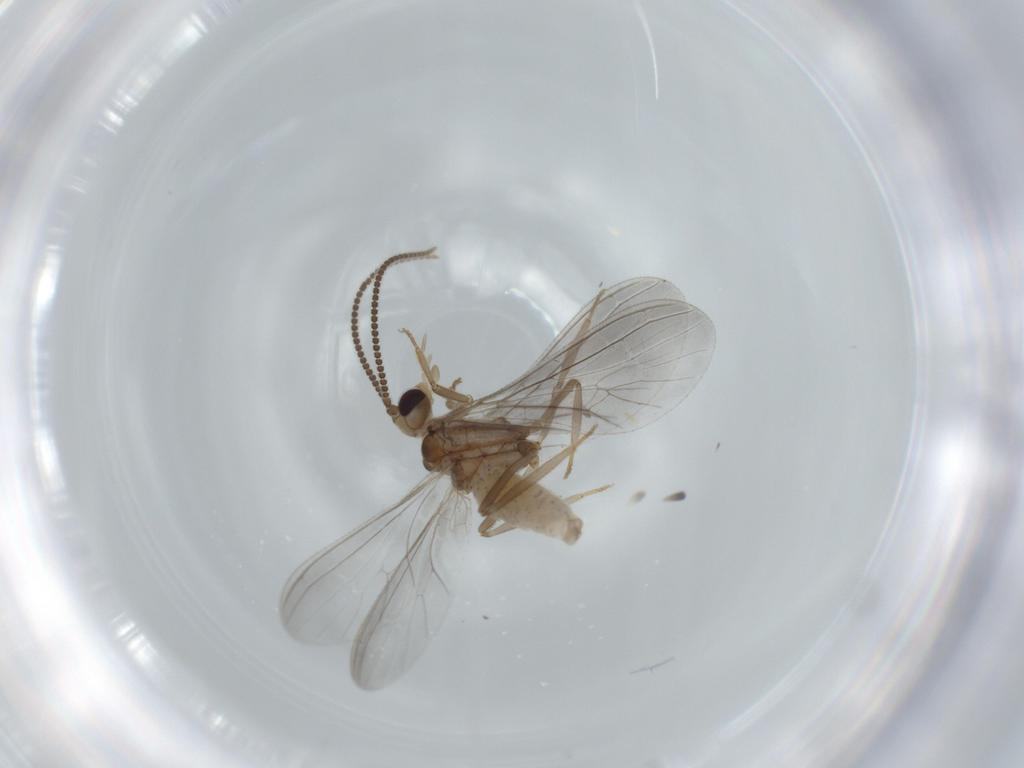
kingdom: Animalia
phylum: Arthropoda
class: Insecta
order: Neuroptera
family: Coniopterygidae
